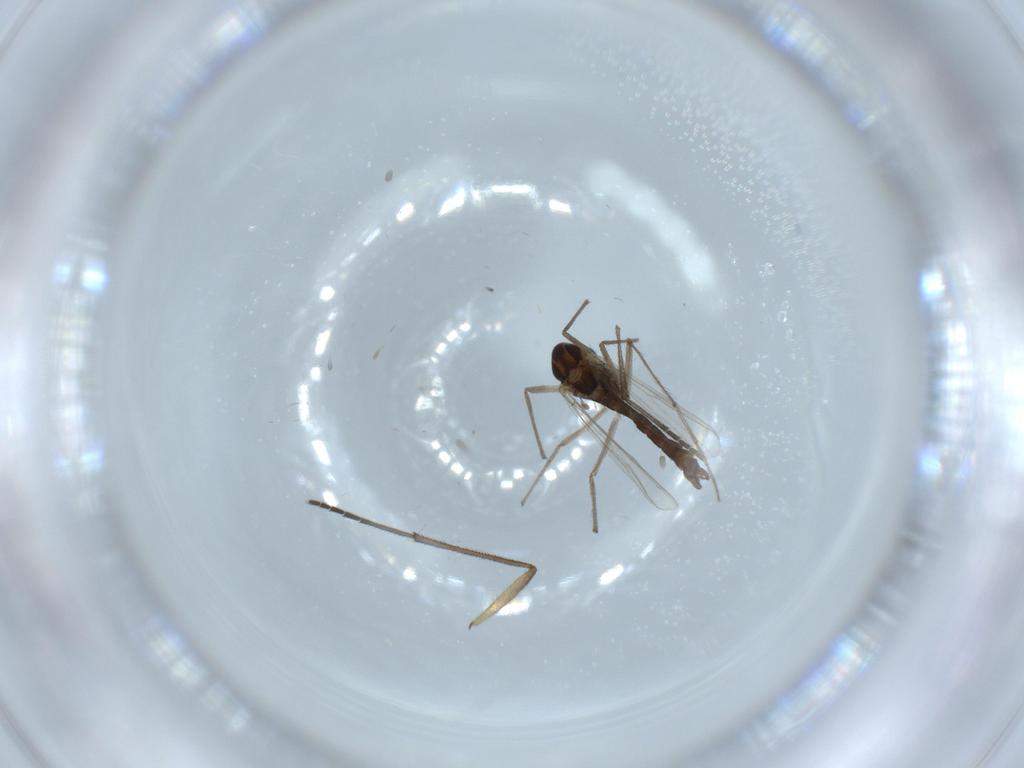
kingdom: Animalia
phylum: Arthropoda
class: Insecta
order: Diptera
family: Chironomidae
